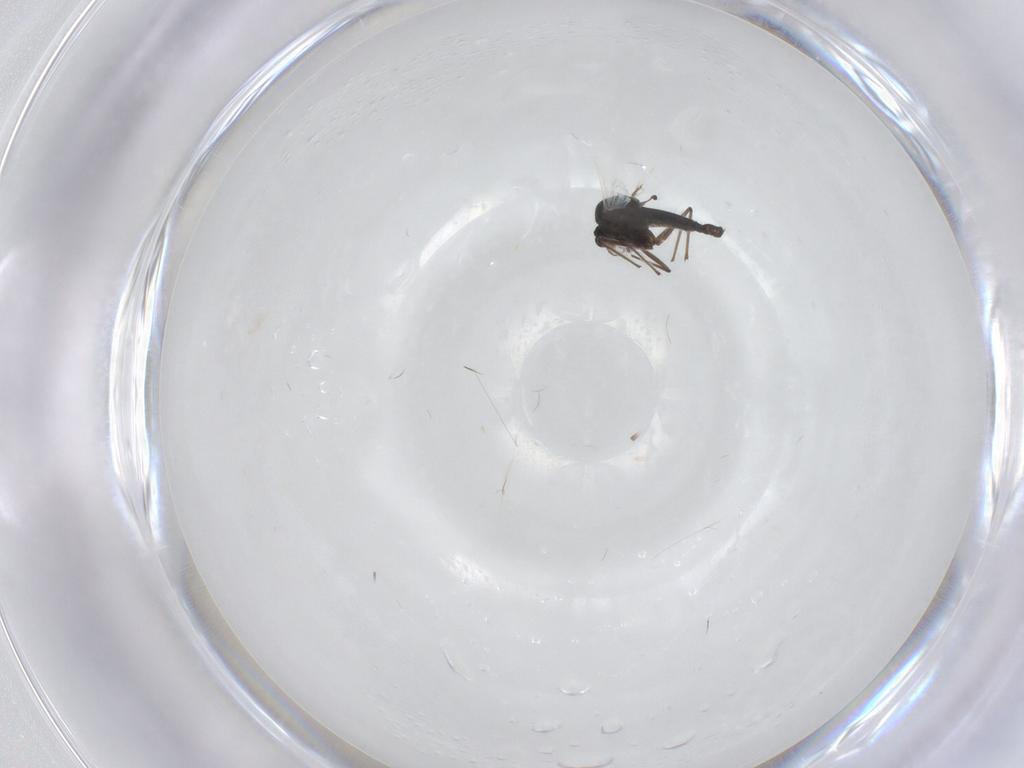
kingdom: Animalia
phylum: Arthropoda
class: Insecta
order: Diptera
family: Chironomidae
